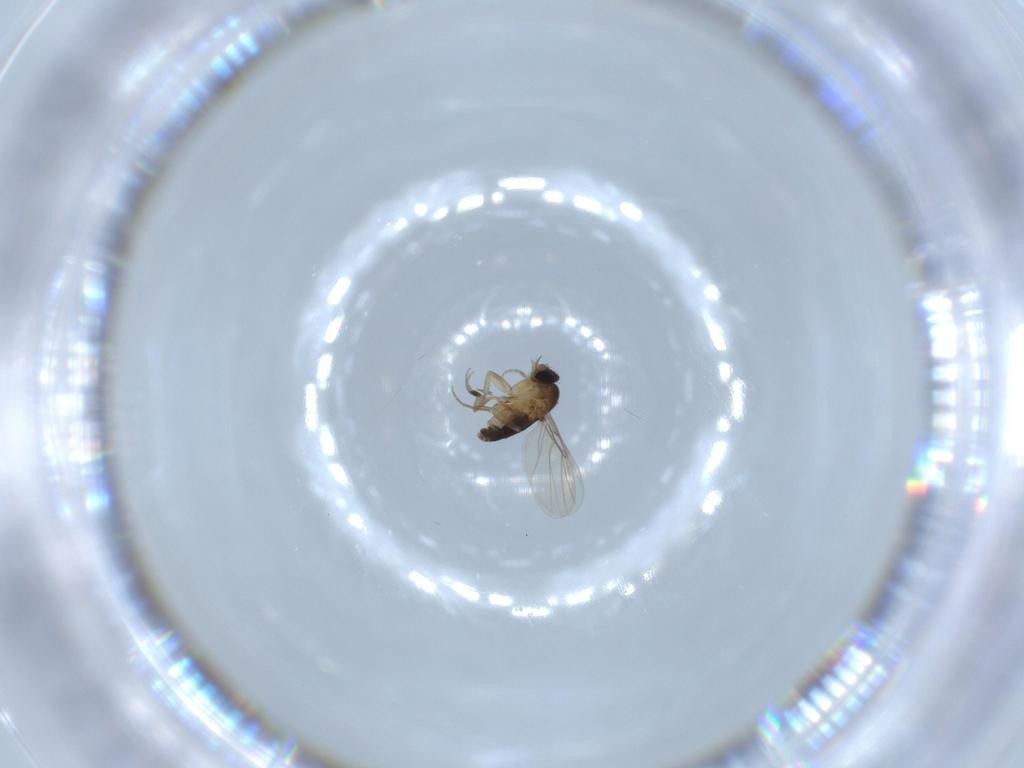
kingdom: Animalia
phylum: Arthropoda
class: Insecta
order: Diptera
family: Phoridae
